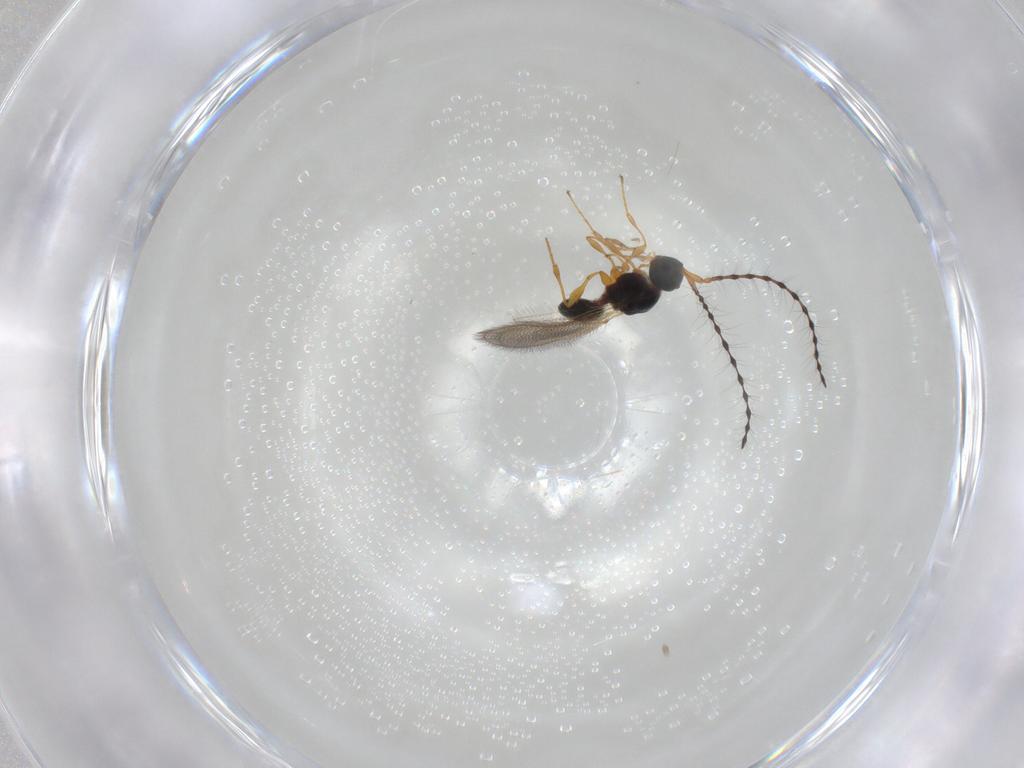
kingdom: Animalia
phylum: Arthropoda
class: Insecta
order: Hymenoptera
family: Diapriidae
